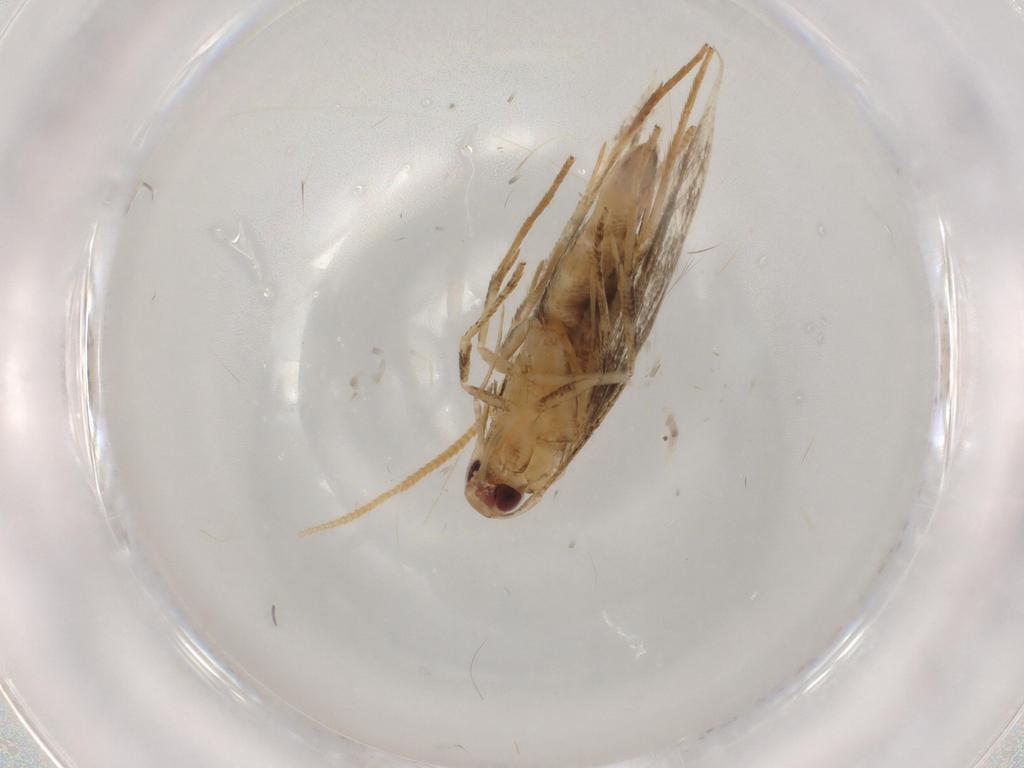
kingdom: Animalia
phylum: Arthropoda
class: Insecta
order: Lepidoptera
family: Cosmopterigidae
